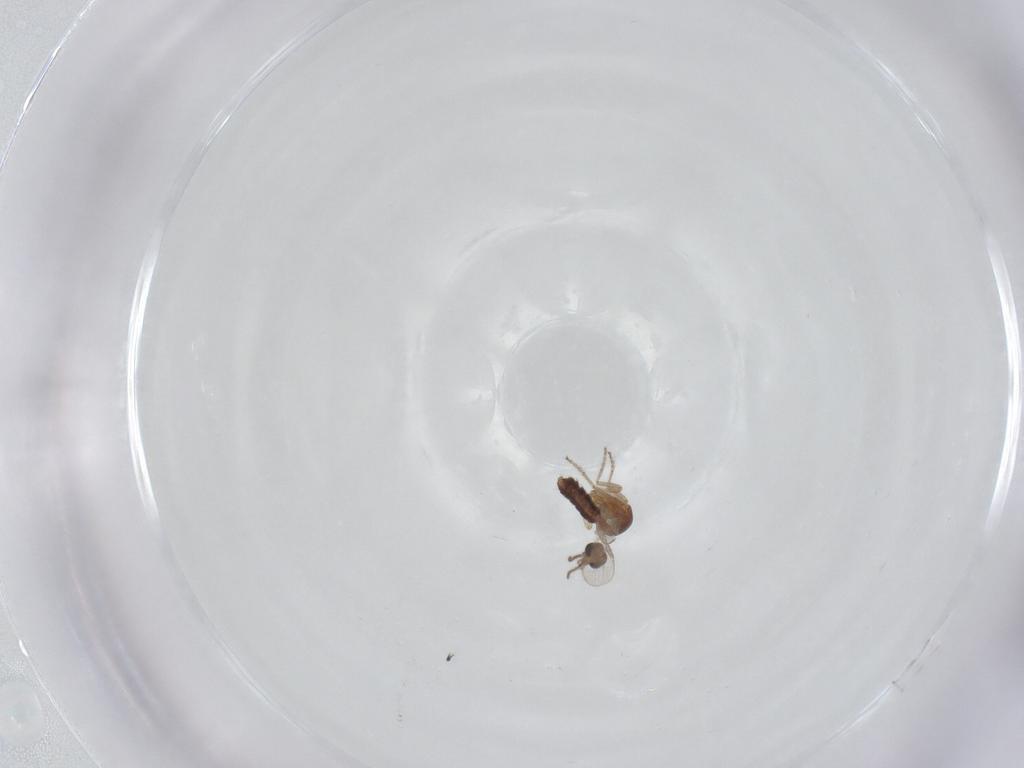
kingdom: Animalia
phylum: Arthropoda
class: Insecta
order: Diptera
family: Ceratopogonidae
